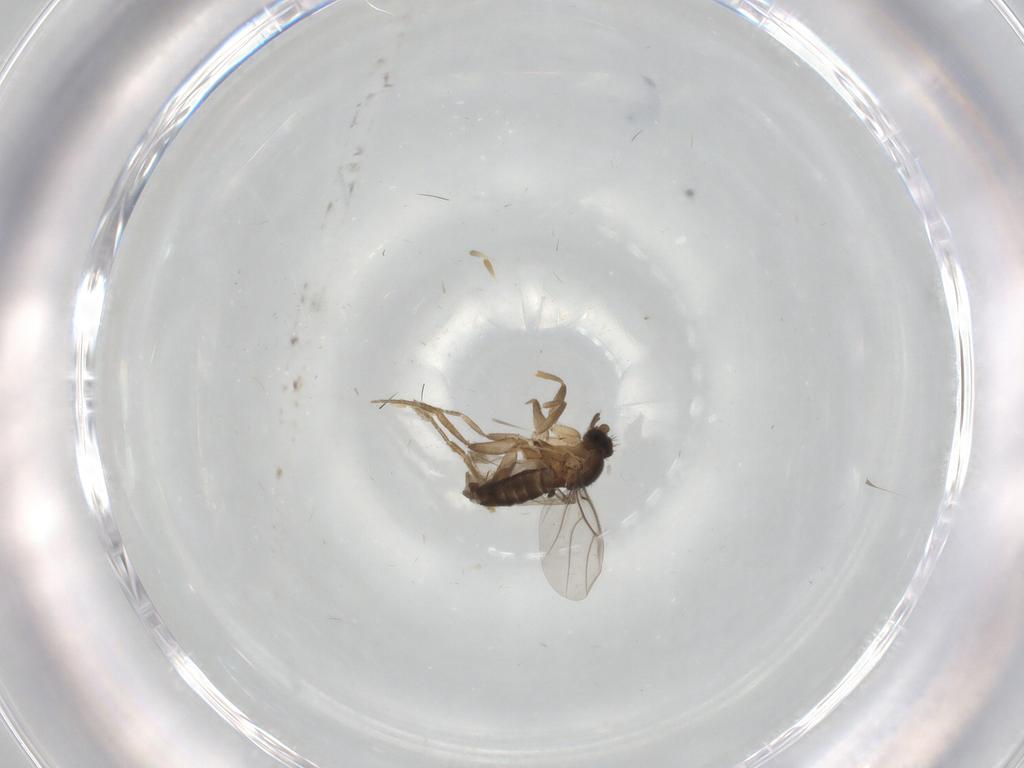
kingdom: Animalia
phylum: Arthropoda
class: Insecta
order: Diptera
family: Phoridae
